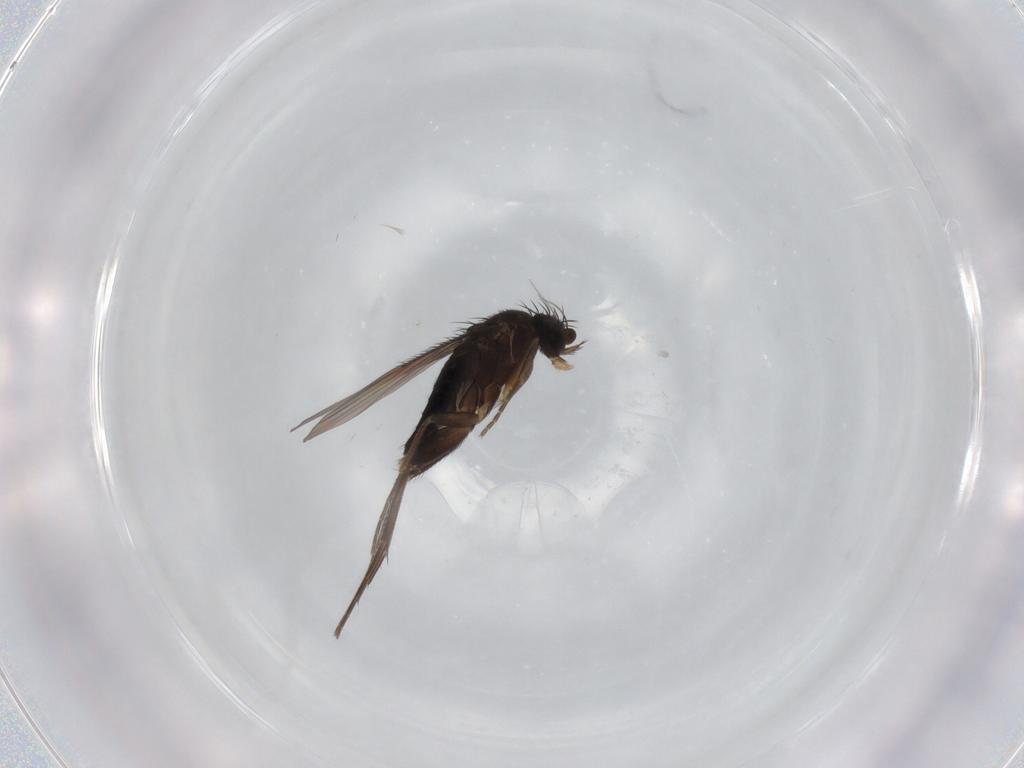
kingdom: Animalia
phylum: Arthropoda
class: Insecta
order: Diptera
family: Phoridae
